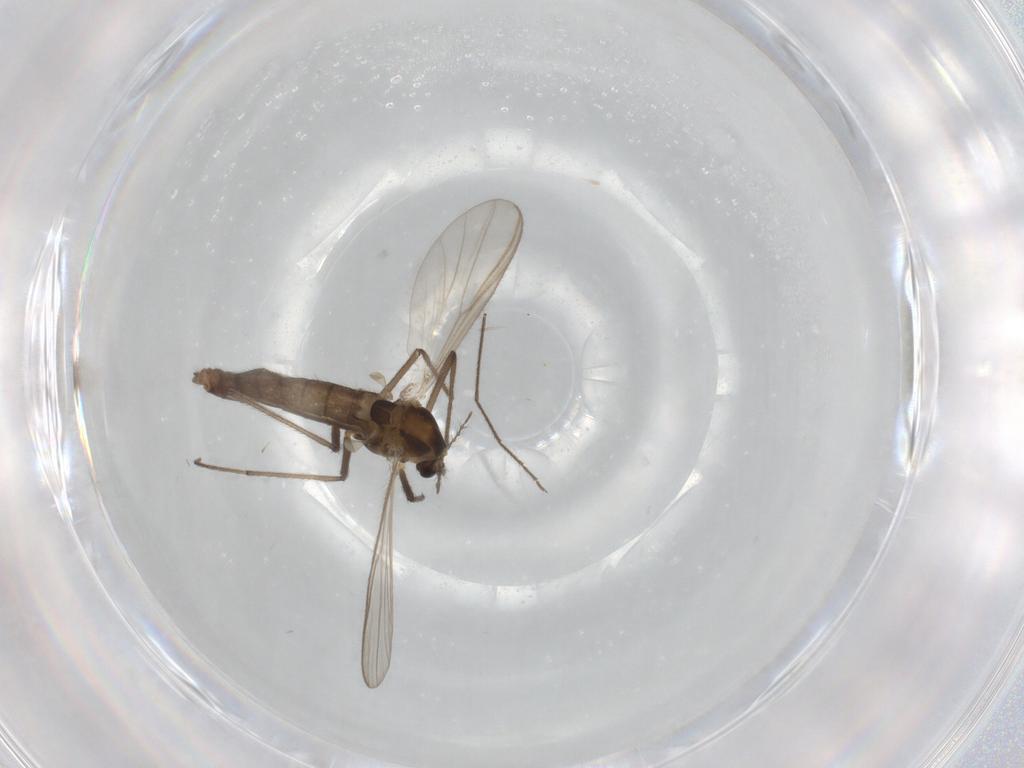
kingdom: Animalia
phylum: Arthropoda
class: Insecta
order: Diptera
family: Chironomidae
